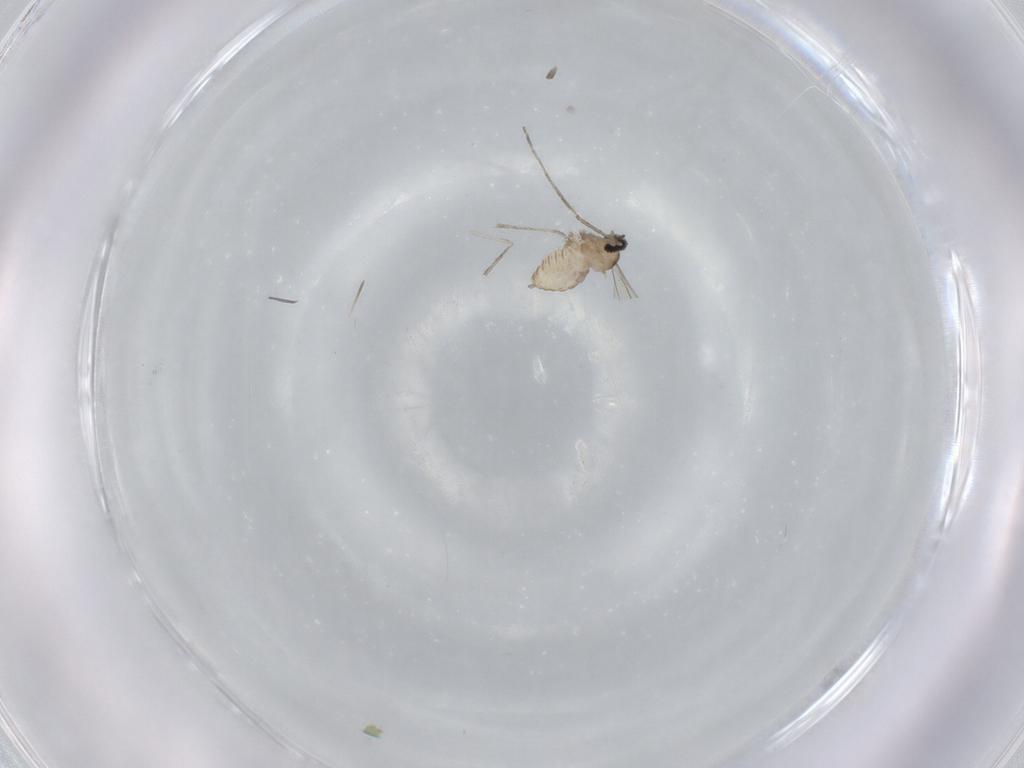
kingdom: Animalia
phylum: Arthropoda
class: Insecta
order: Diptera
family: Cecidomyiidae
